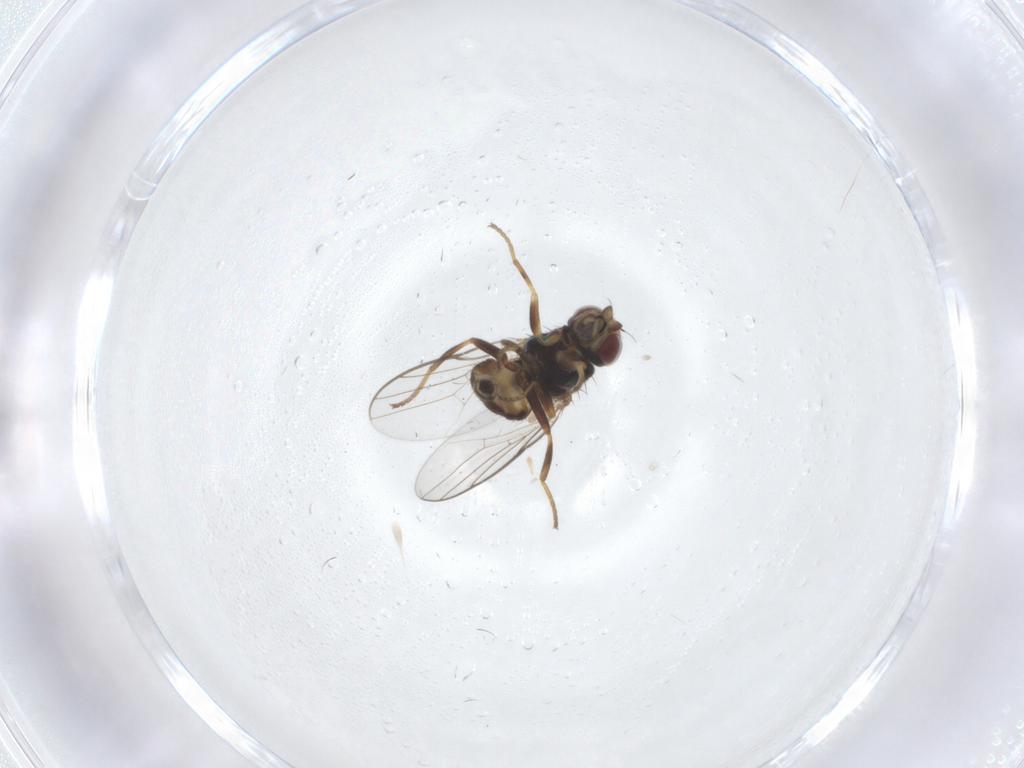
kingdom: Animalia
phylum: Arthropoda
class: Insecta
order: Diptera
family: Chloropidae
